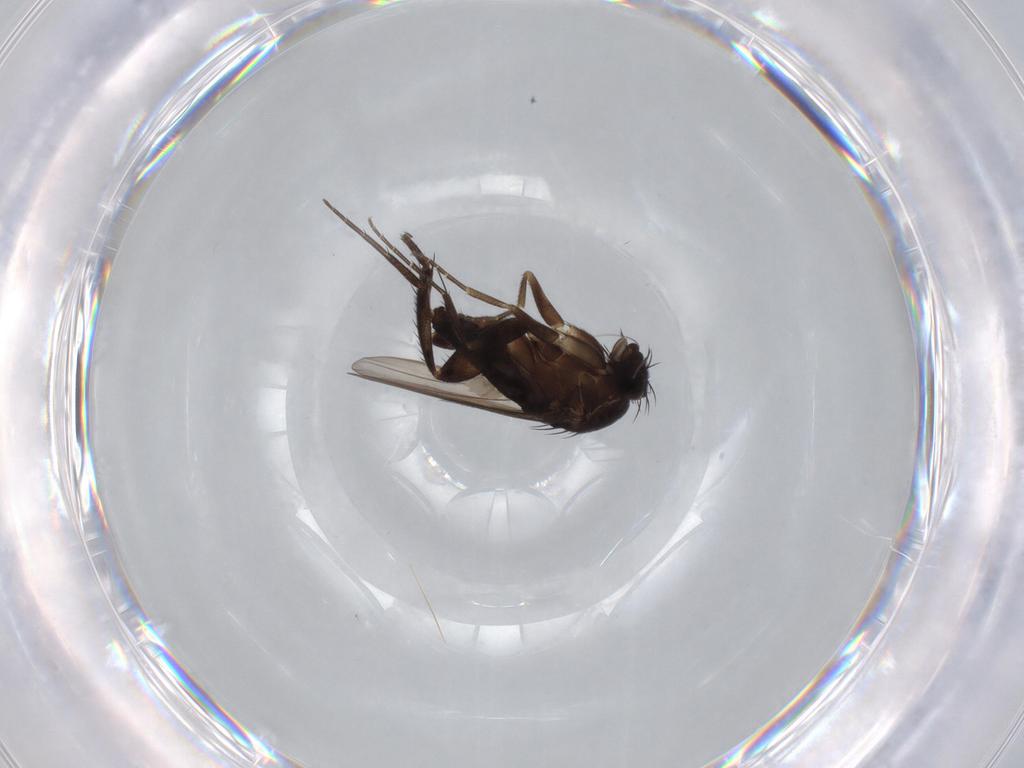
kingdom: Animalia
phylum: Arthropoda
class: Insecta
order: Diptera
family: Phoridae
